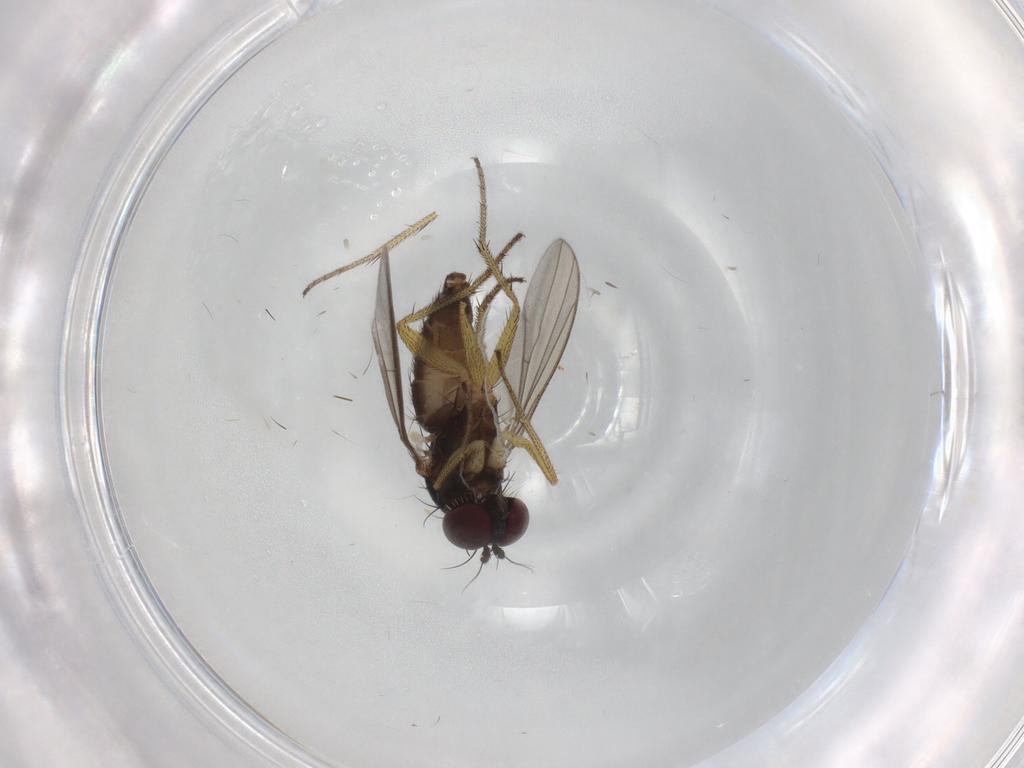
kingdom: Animalia
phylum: Arthropoda
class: Insecta
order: Diptera
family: Dolichopodidae
